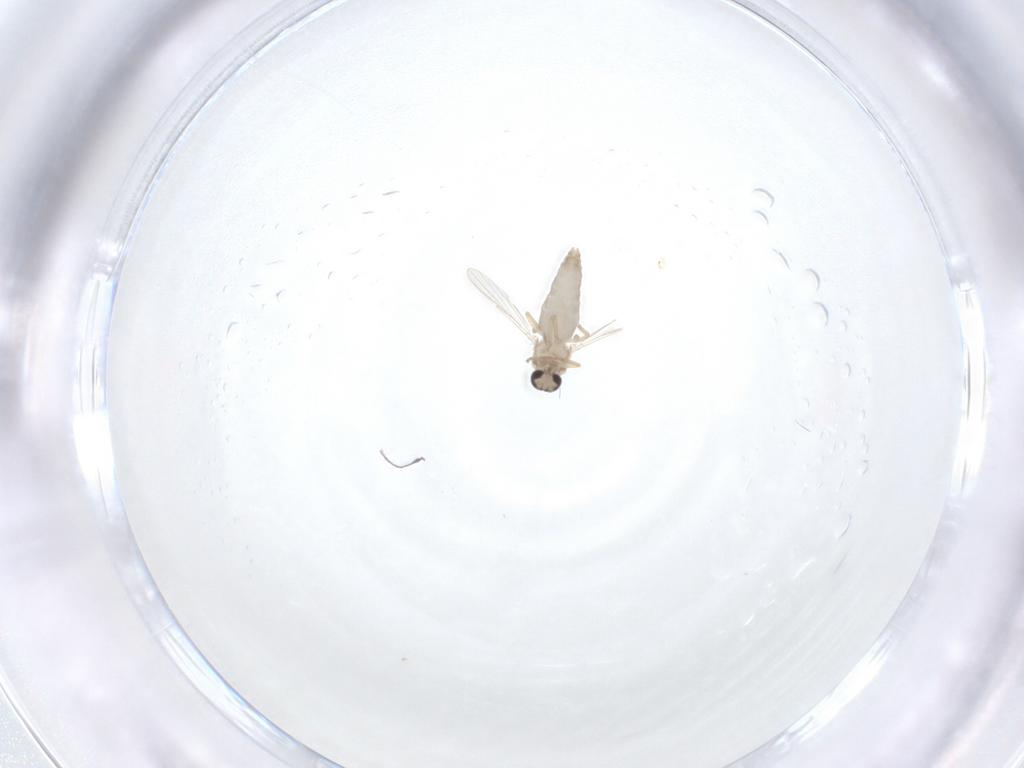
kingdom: Animalia
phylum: Arthropoda
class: Insecta
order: Diptera
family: Ceratopogonidae
